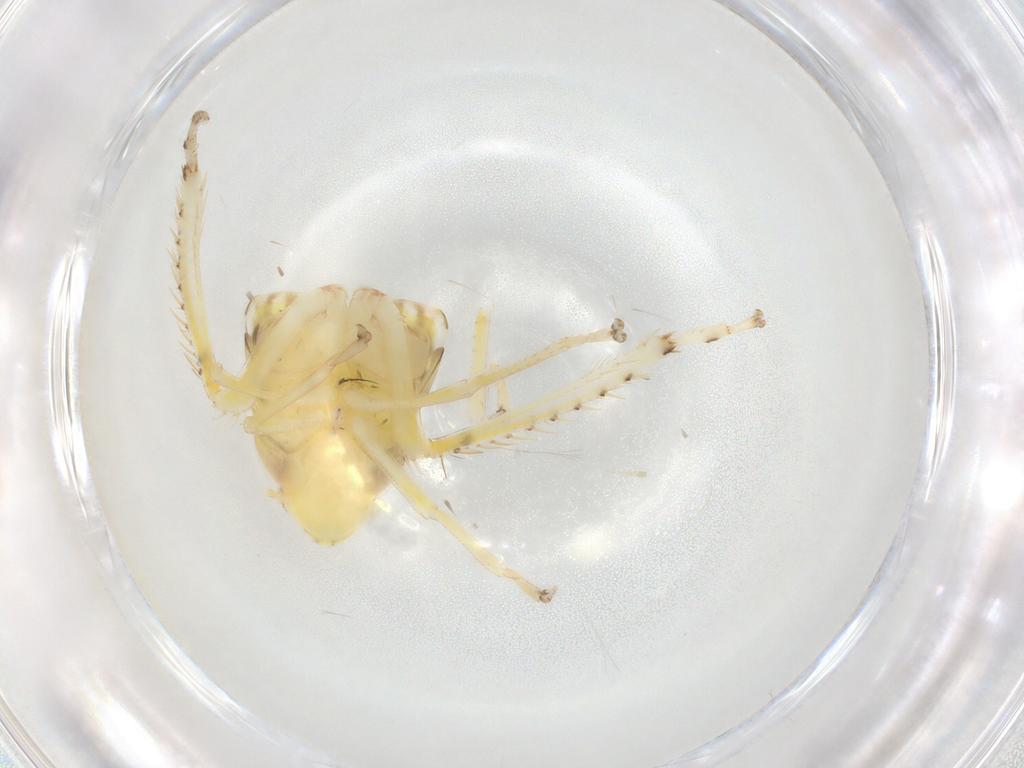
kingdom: Animalia
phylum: Arthropoda
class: Insecta
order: Hemiptera
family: Cicadellidae
